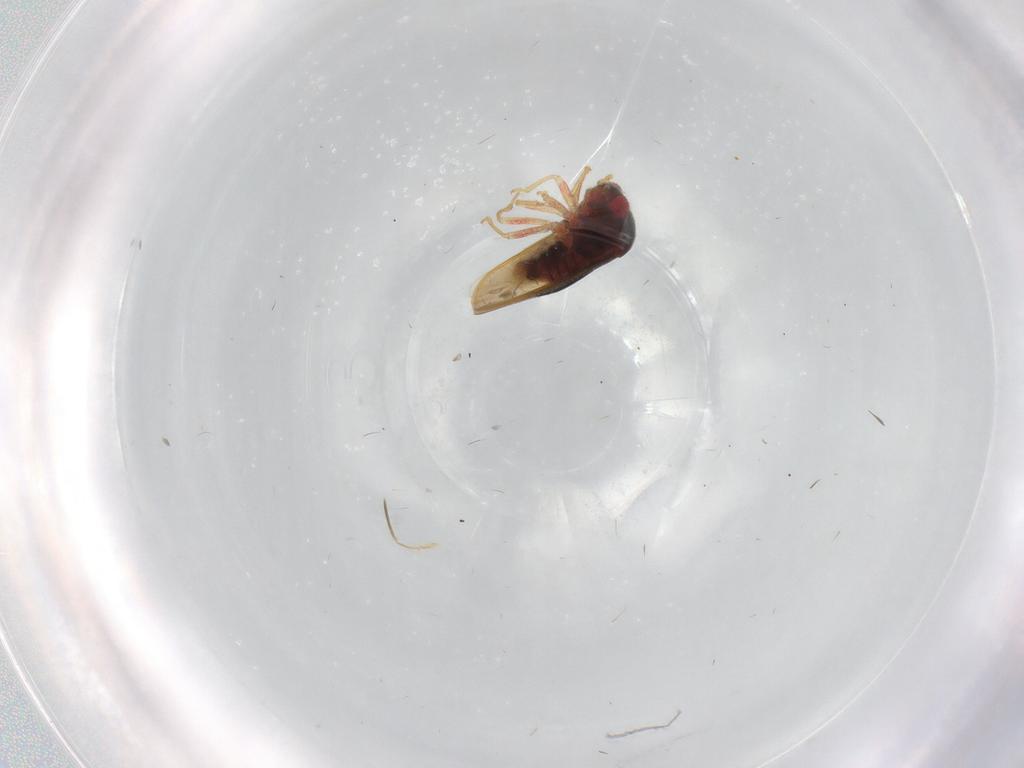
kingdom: Animalia
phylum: Arthropoda
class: Insecta
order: Hemiptera
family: Schizopteridae
